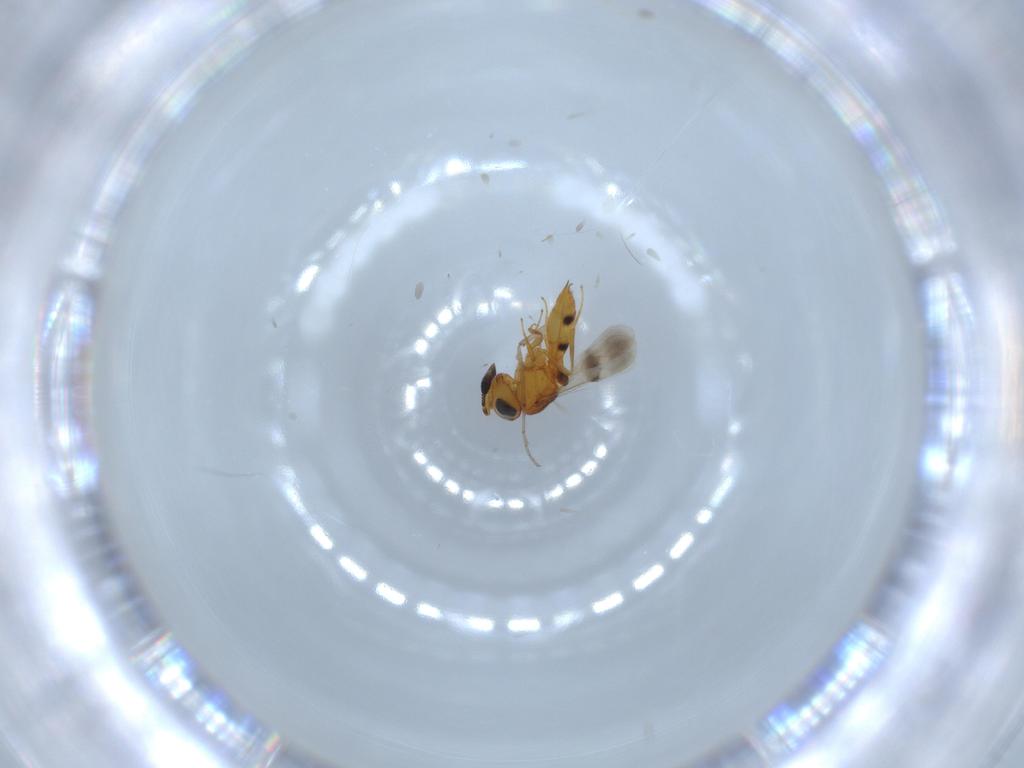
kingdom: Animalia
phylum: Arthropoda
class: Insecta
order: Hymenoptera
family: Scelionidae
